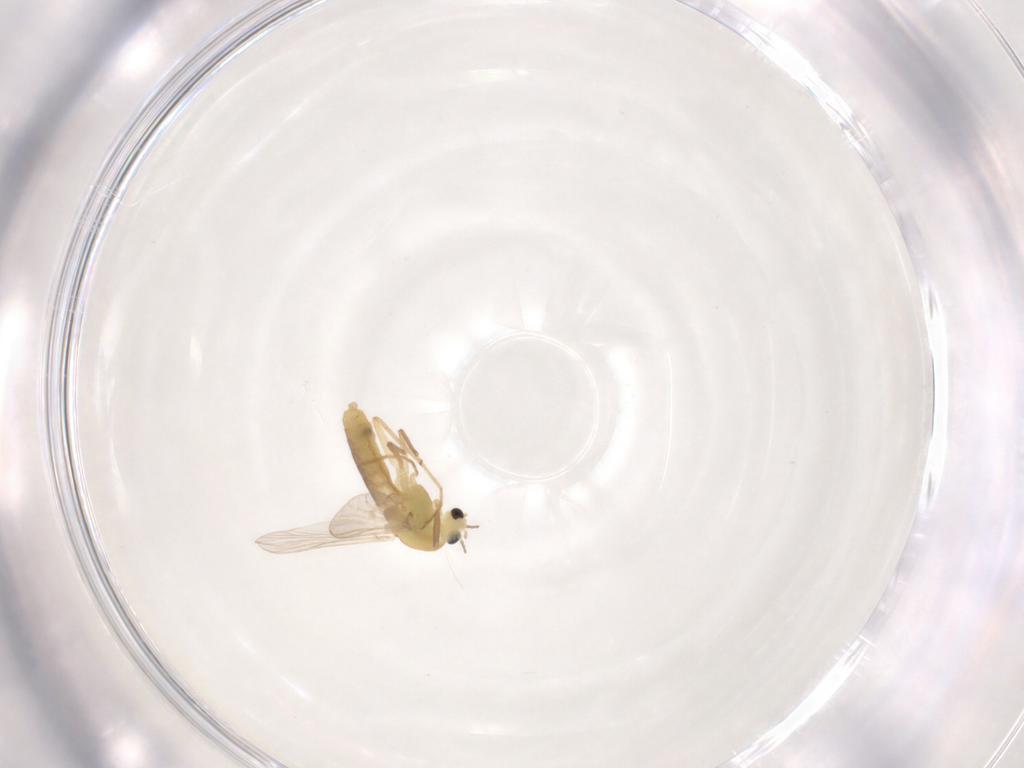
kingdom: Animalia
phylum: Arthropoda
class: Insecta
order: Diptera
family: Chironomidae
